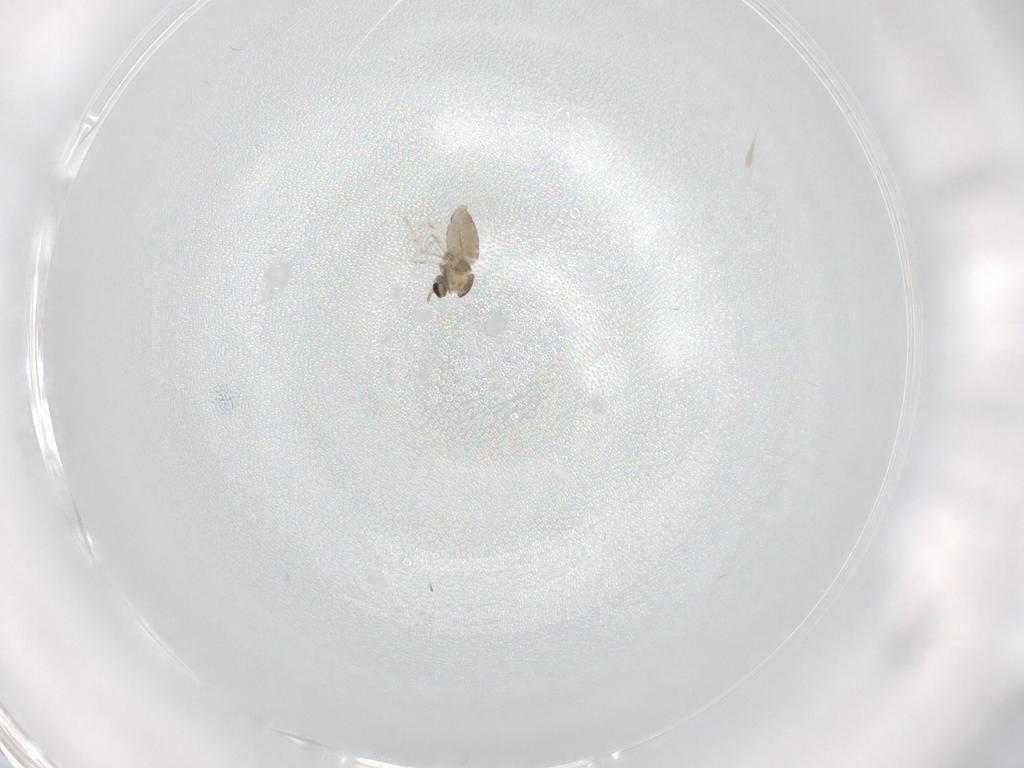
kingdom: Animalia
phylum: Arthropoda
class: Insecta
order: Diptera
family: Cecidomyiidae
